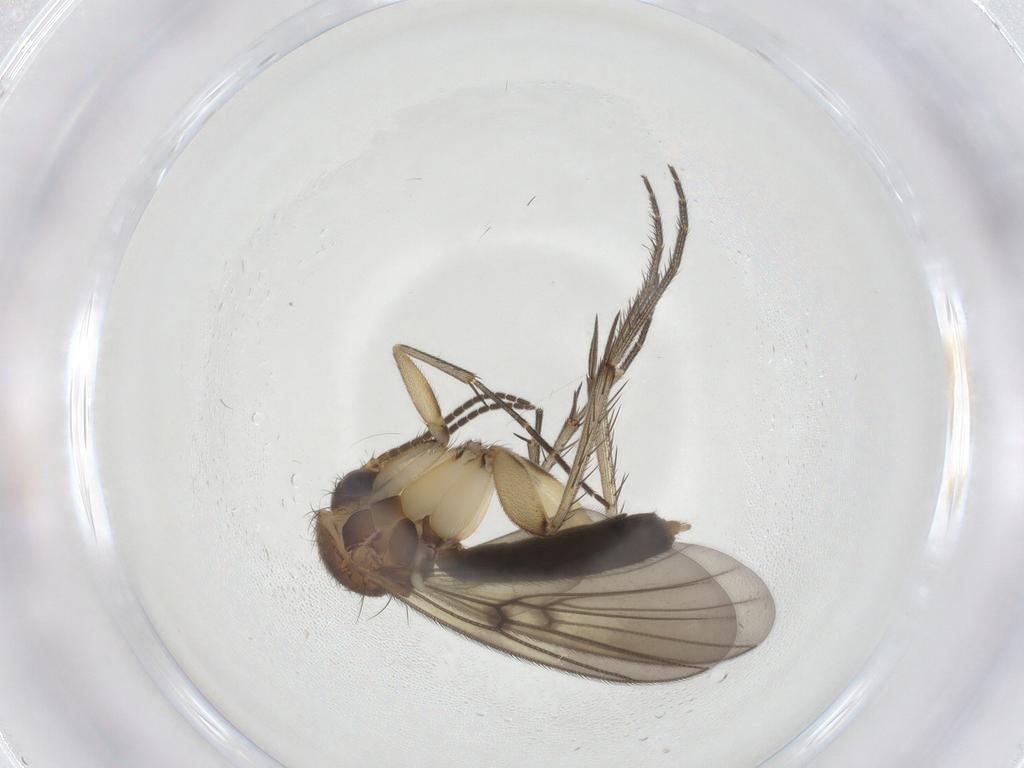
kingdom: Animalia
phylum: Arthropoda
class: Insecta
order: Diptera
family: Mycetophilidae
